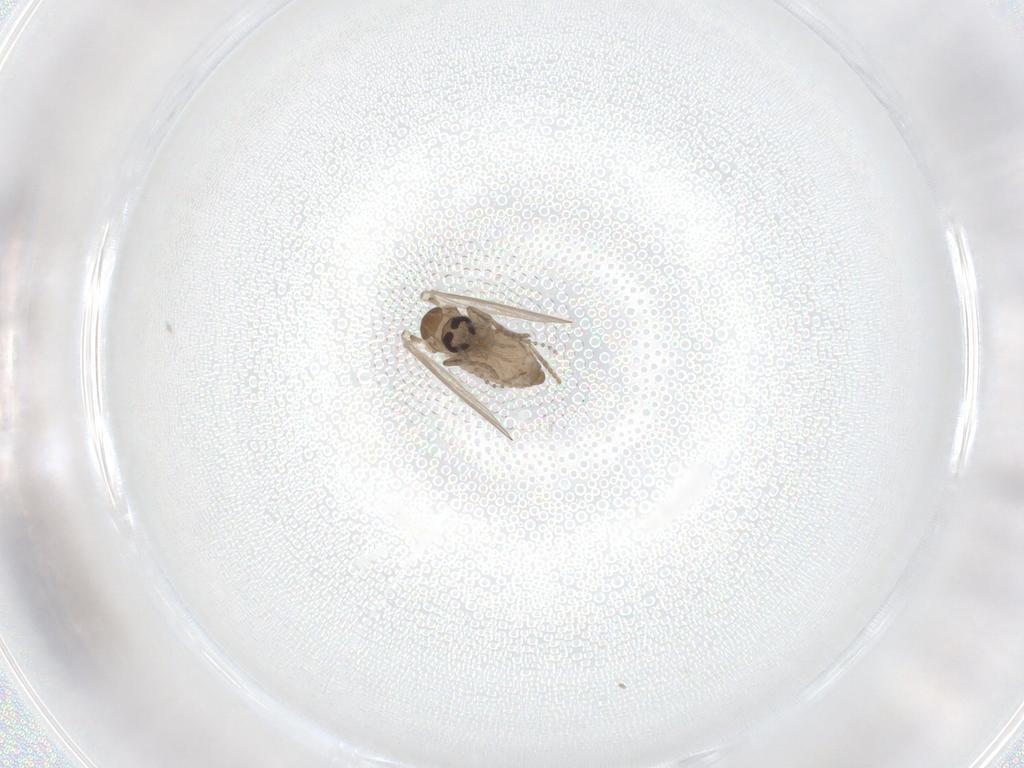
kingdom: Animalia
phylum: Arthropoda
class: Insecta
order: Diptera
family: Psychodidae
